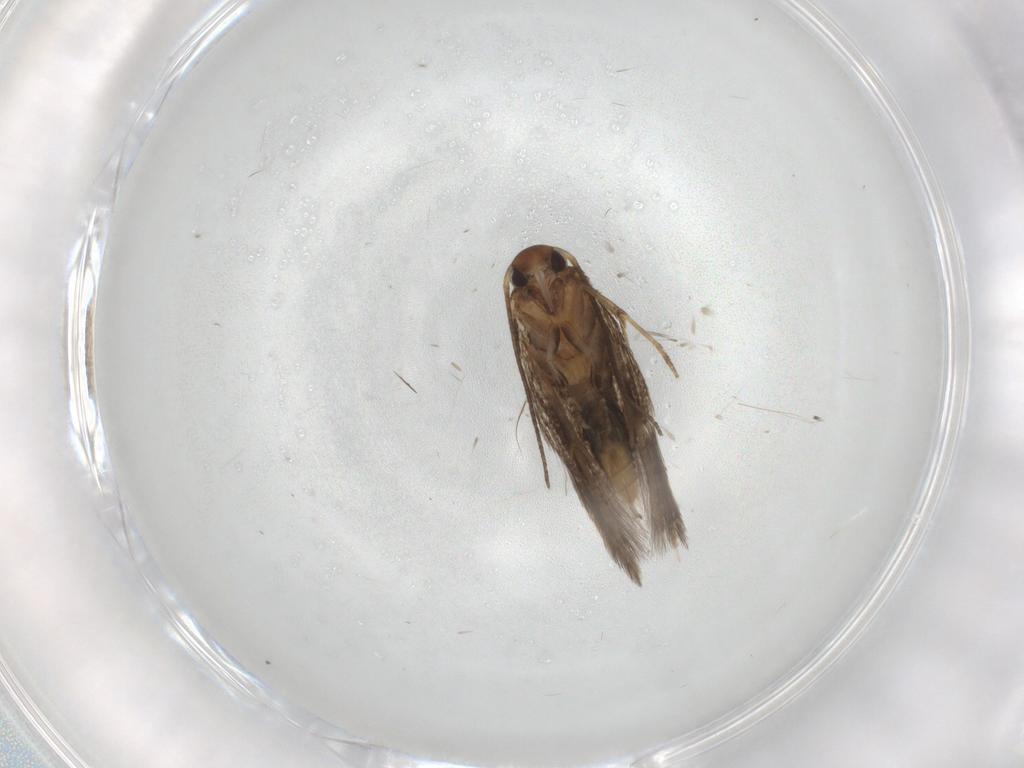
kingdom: Animalia
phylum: Arthropoda
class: Insecta
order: Lepidoptera
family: Elachistidae
